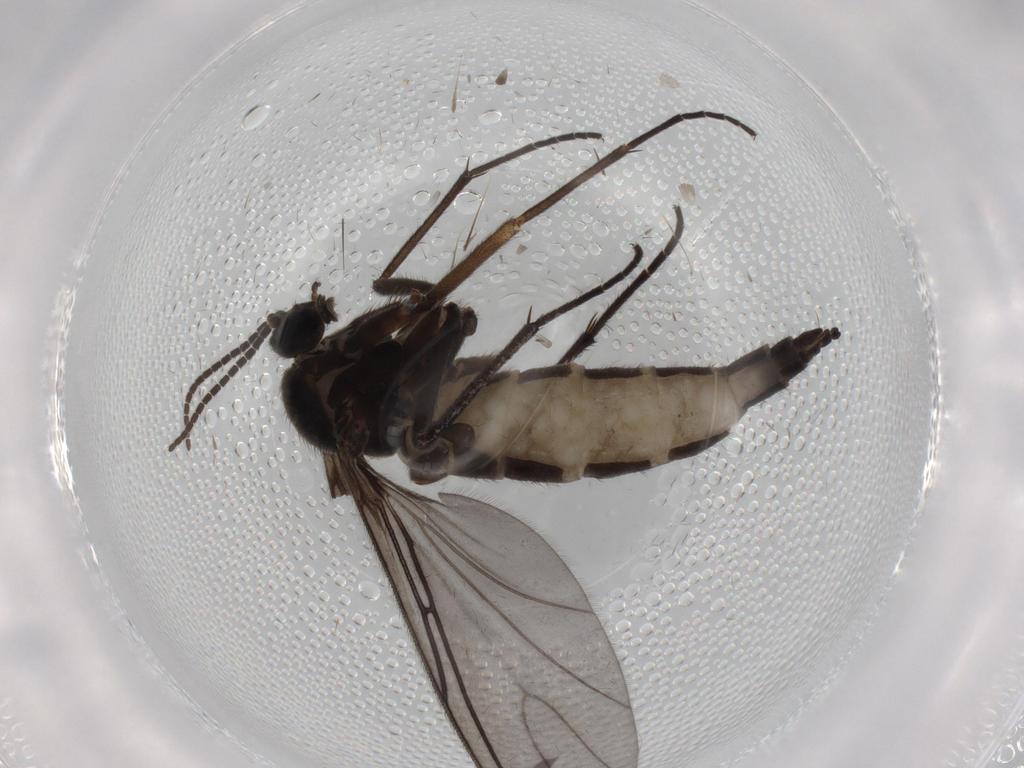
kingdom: Animalia
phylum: Arthropoda
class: Insecta
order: Diptera
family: Sciaridae
